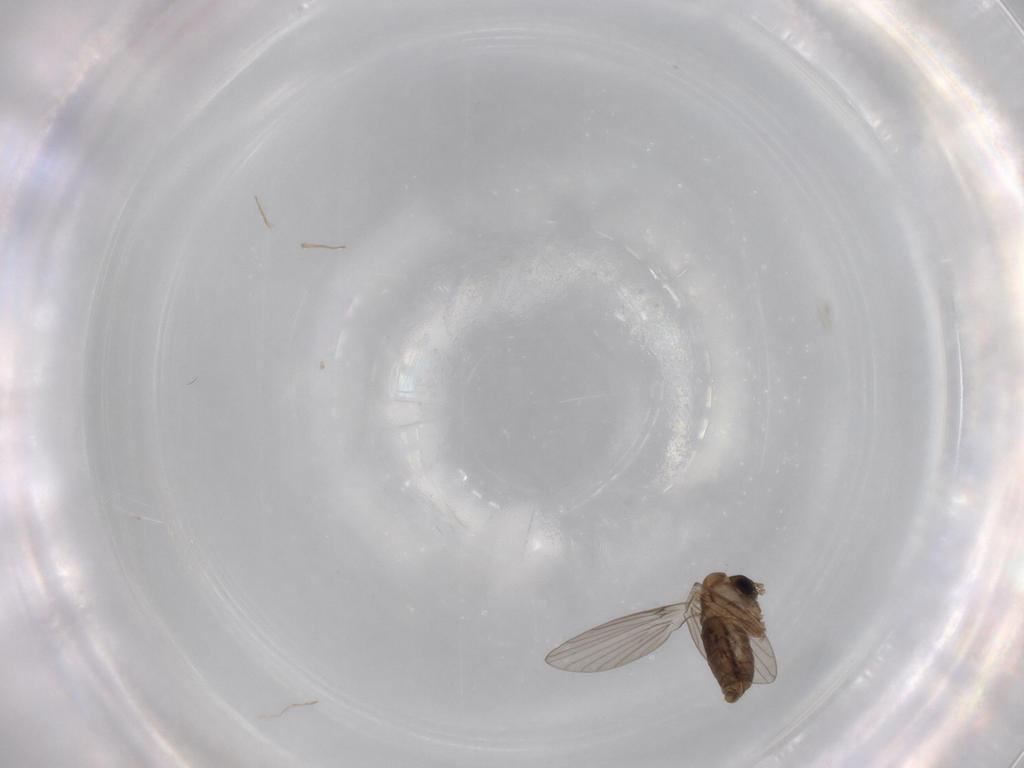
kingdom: Animalia
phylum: Arthropoda
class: Insecta
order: Diptera
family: Psychodidae
